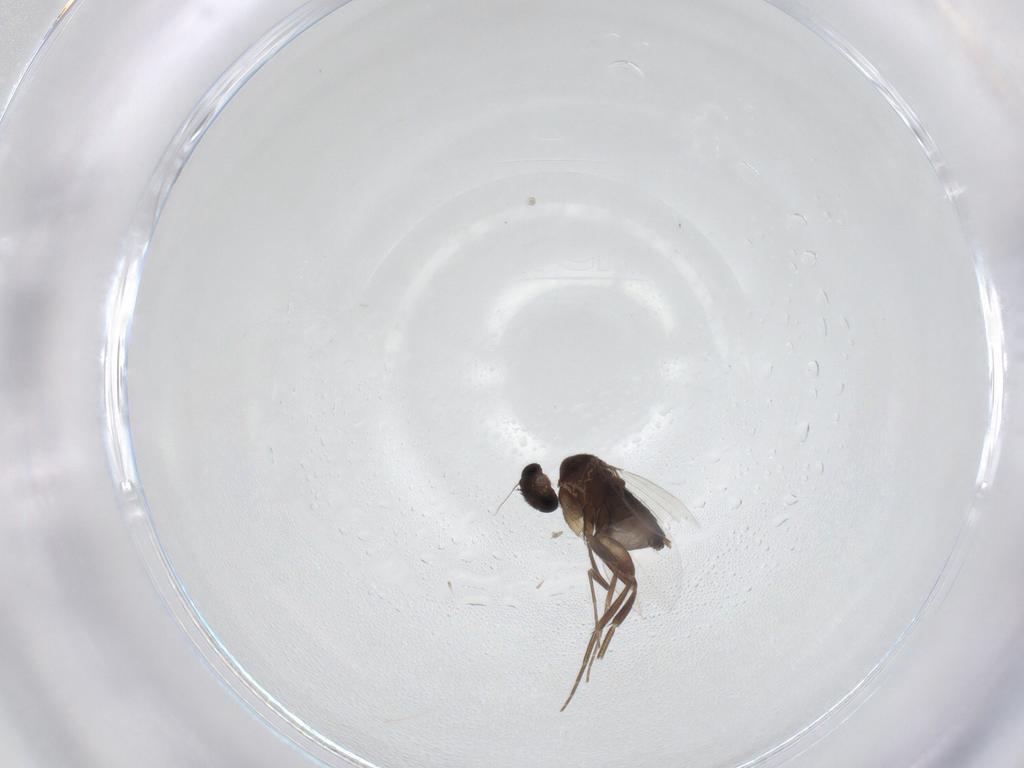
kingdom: Animalia
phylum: Arthropoda
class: Insecta
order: Diptera
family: Phoridae
